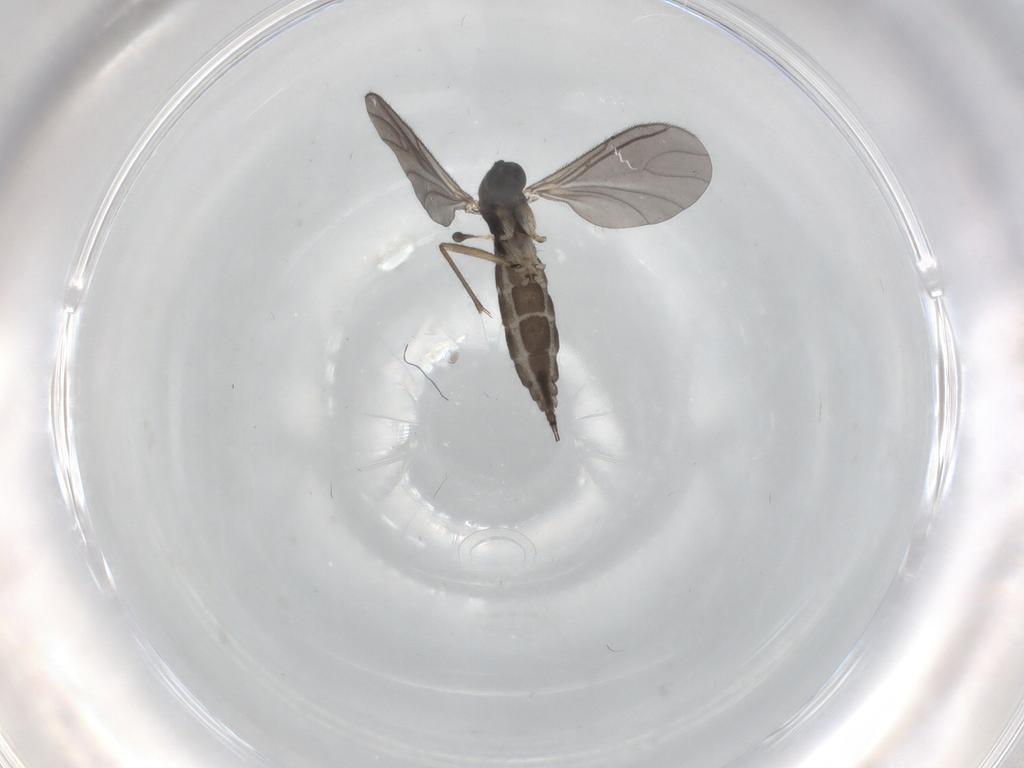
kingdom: Animalia
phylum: Arthropoda
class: Insecta
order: Diptera
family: Sciaridae
